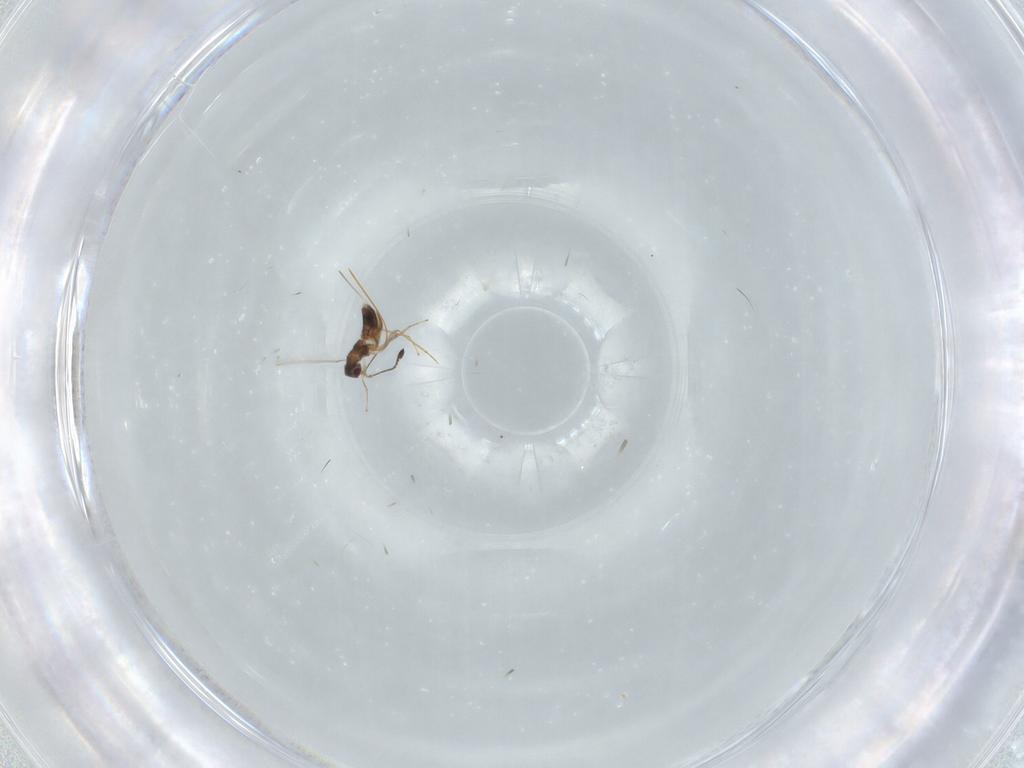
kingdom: Animalia
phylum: Arthropoda
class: Insecta
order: Hymenoptera
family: Mymaridae
